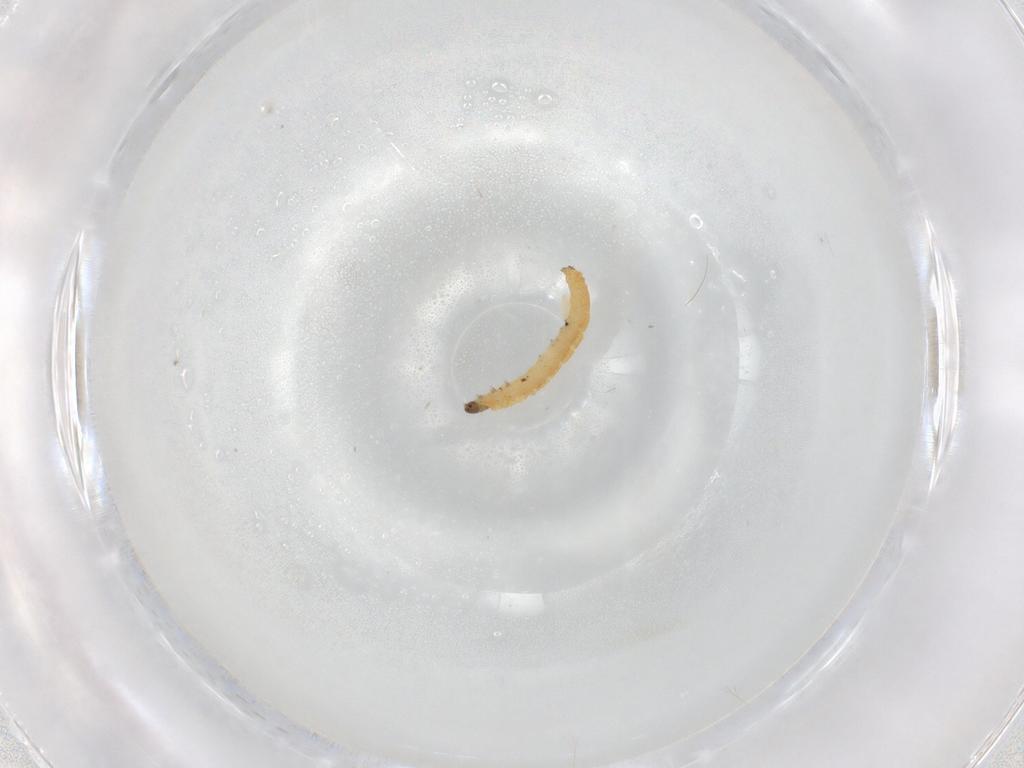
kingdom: Animalia
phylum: Arthropoda
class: Insecta
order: Lepidoptera
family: Gelechiidae
